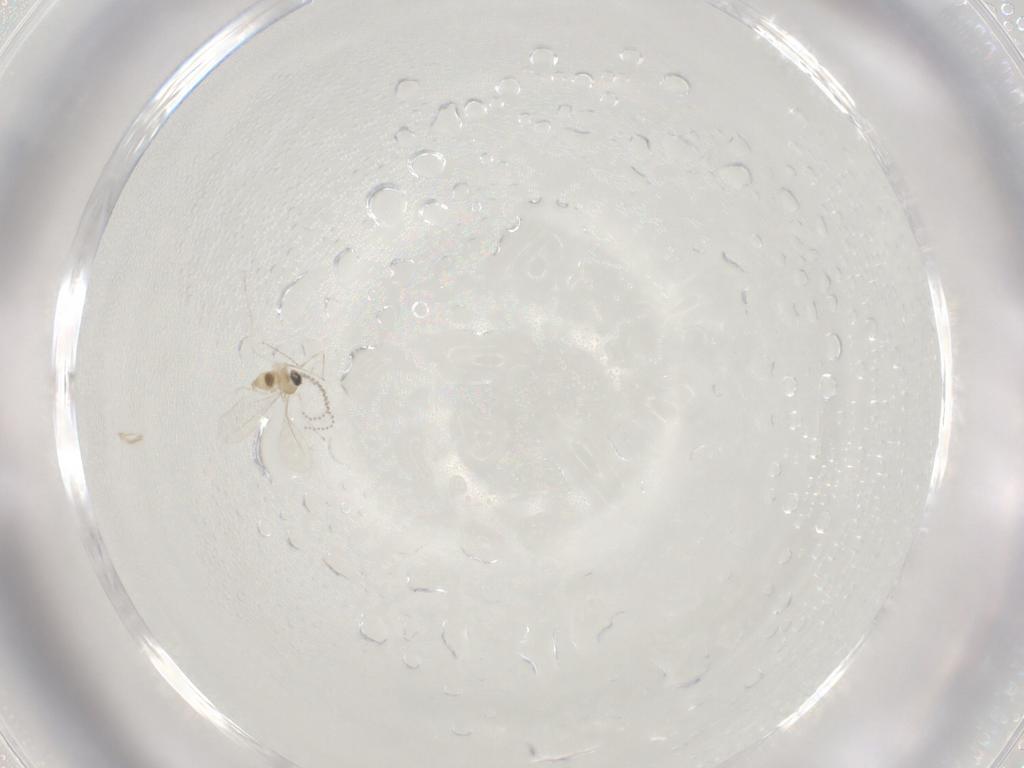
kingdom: Animalia
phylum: Arthropoda
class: Insecta
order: Diptera
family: Cecidomyiidae
